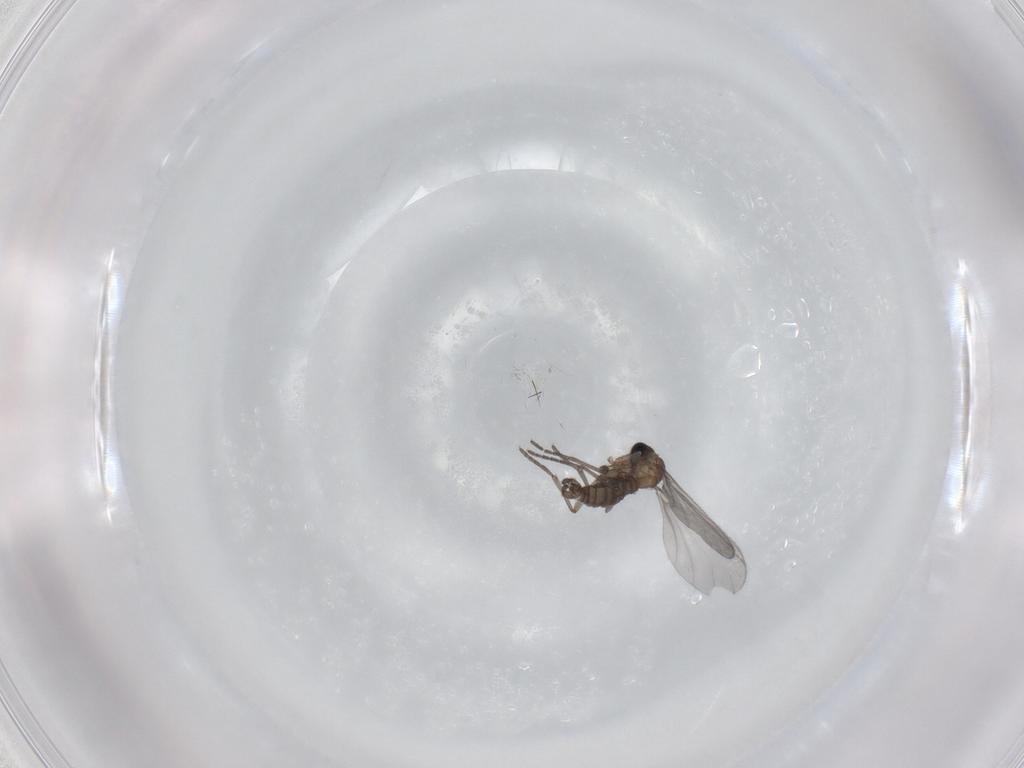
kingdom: Animalia
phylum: Arthropoda
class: Insecta
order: Diptera
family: Sciaridae
